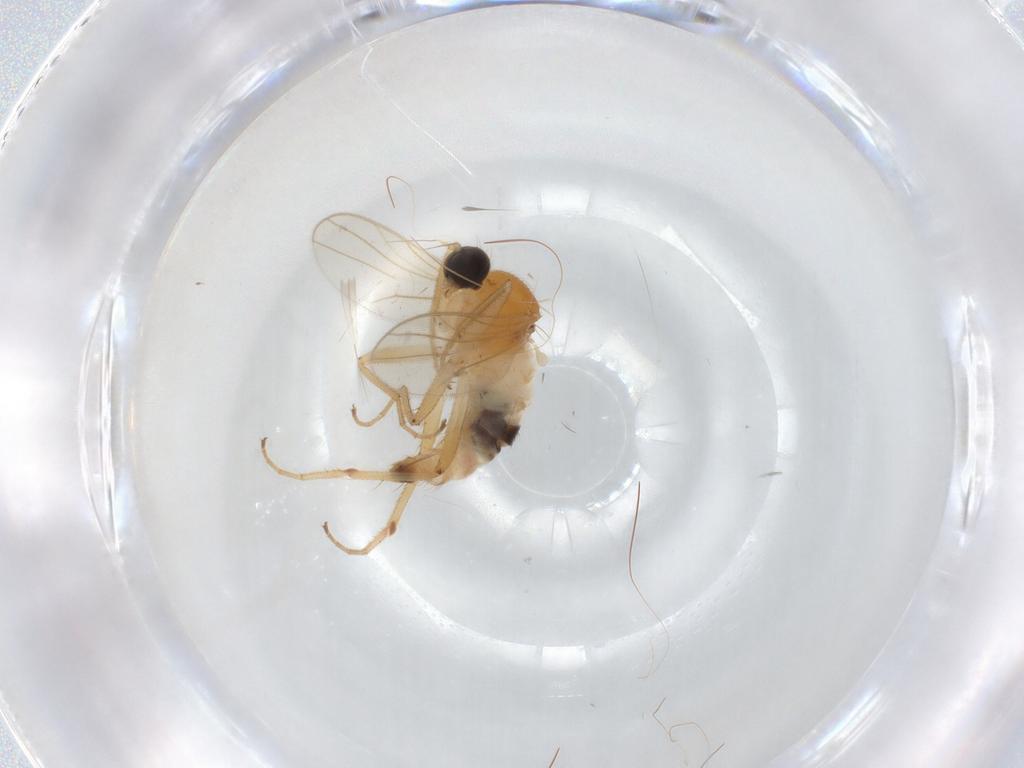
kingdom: Animalia
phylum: Arthropoda
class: Insecta
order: Diptera
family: Hybotidae
